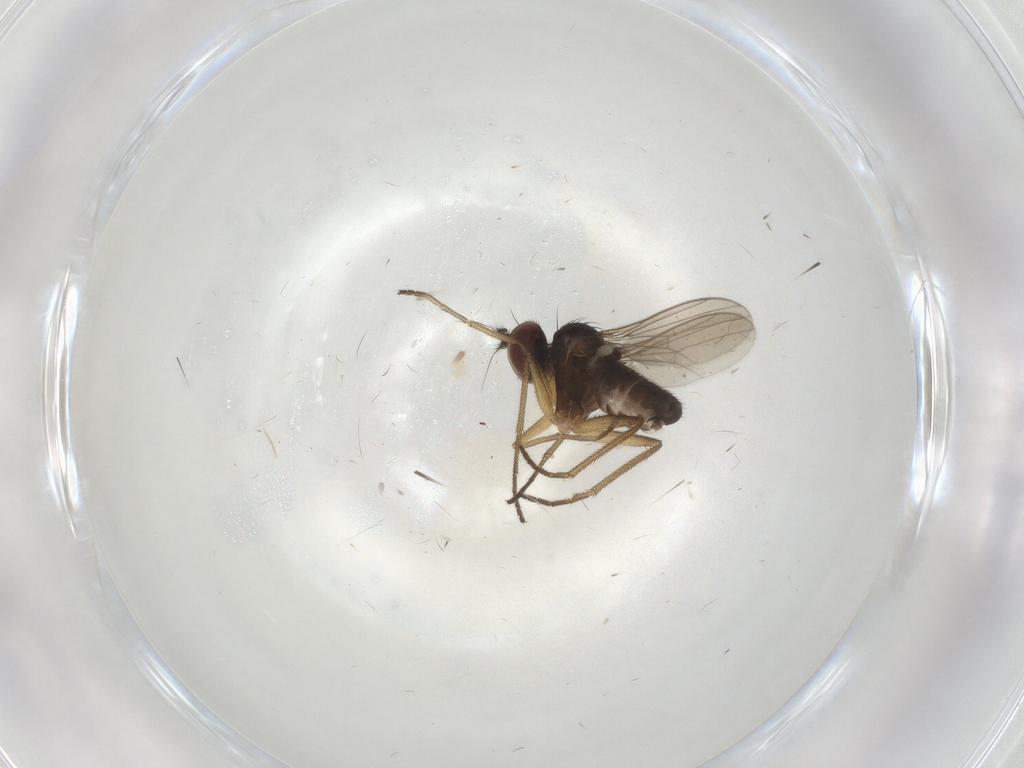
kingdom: Animalia
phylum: Arthropoda
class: Insecta
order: Diptera
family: Dolichopodidae
